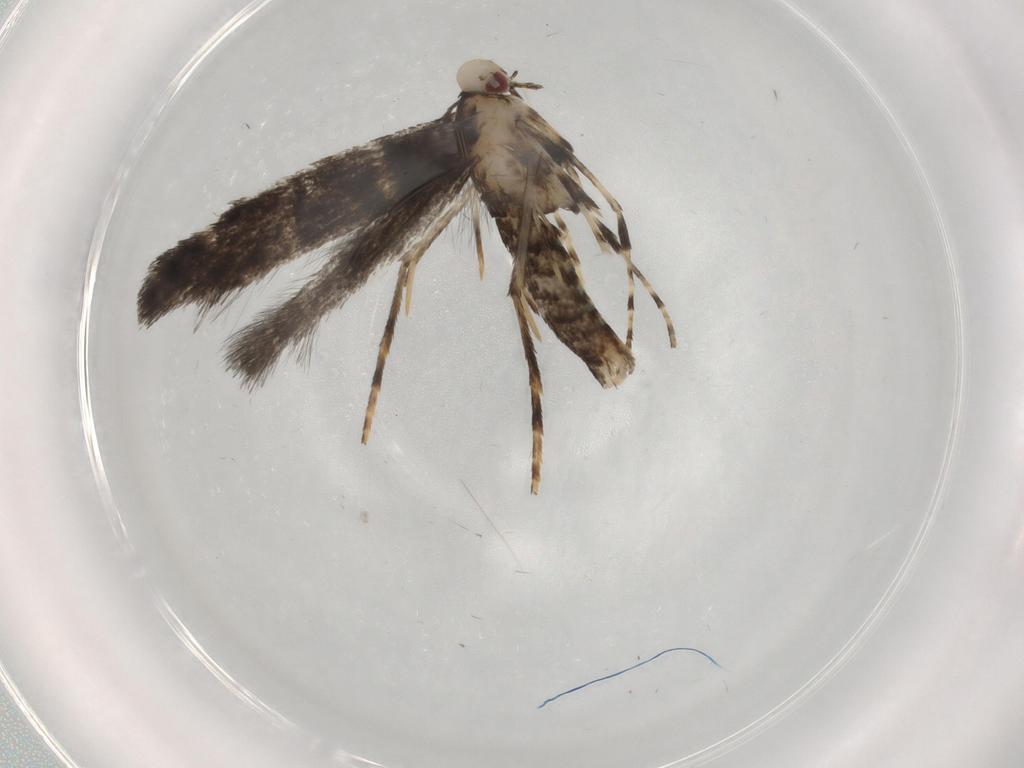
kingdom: Animalia
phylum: Arthropoda
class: Insecta
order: Lepidoptera
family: Gracillariidae
